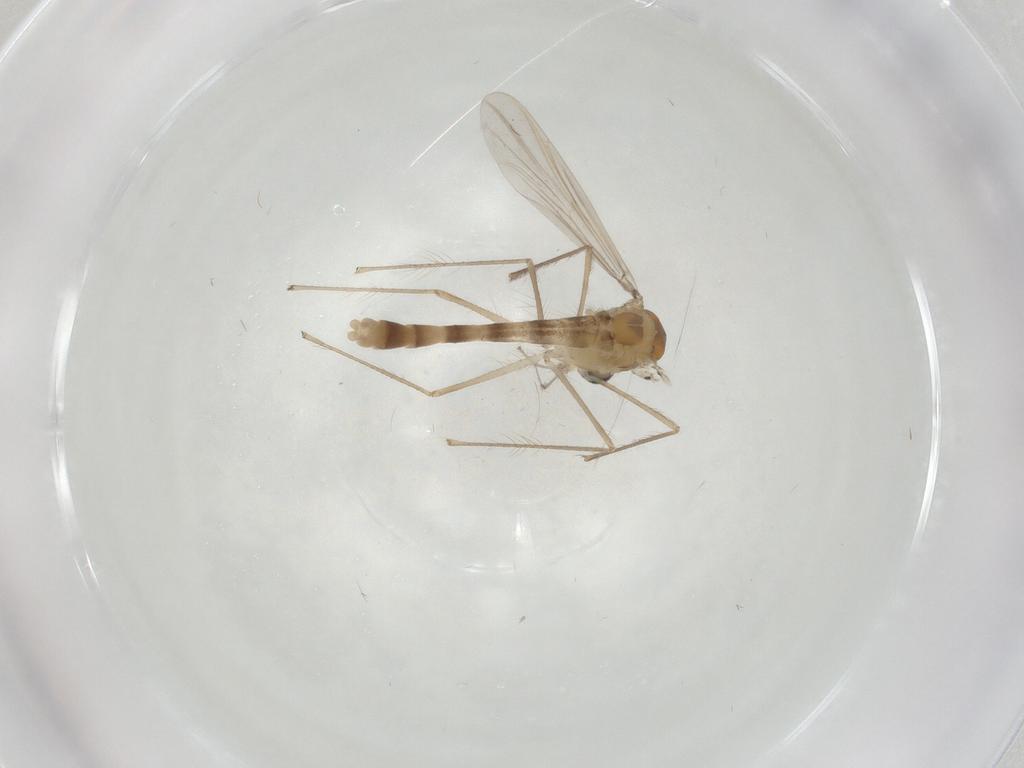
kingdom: Animalia
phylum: Arthropoda
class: Insecta
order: Diptera
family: Chironomidae
